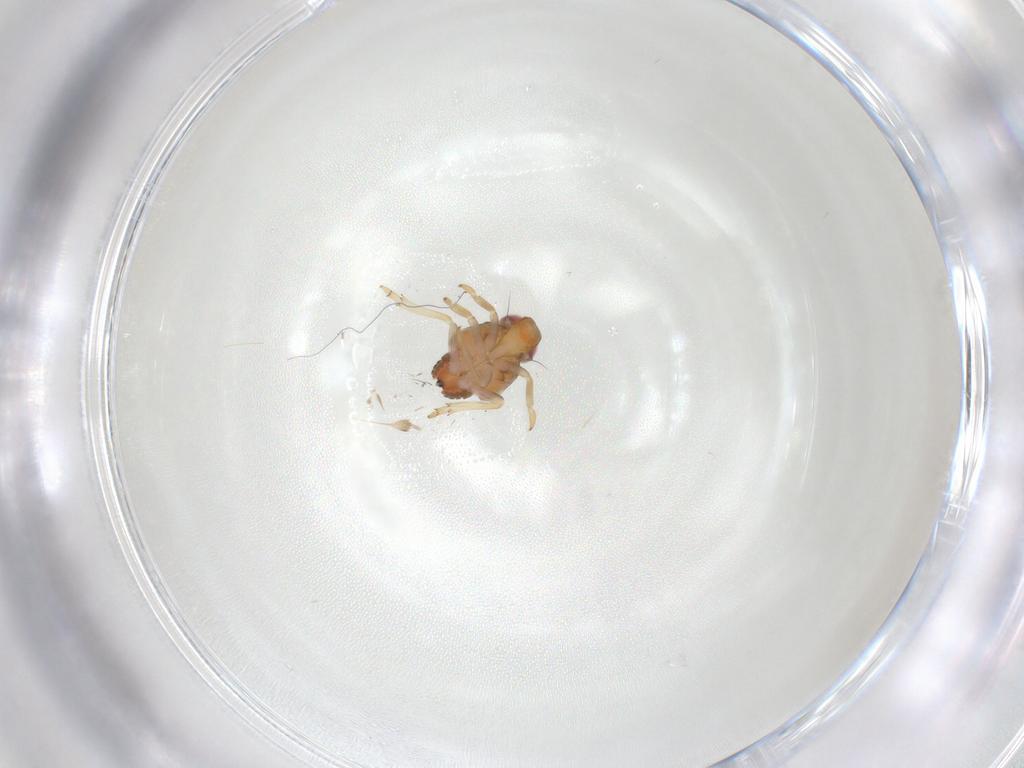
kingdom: Animalia
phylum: Arthropoda
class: Insecta
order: Hemiptera
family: Issidae
